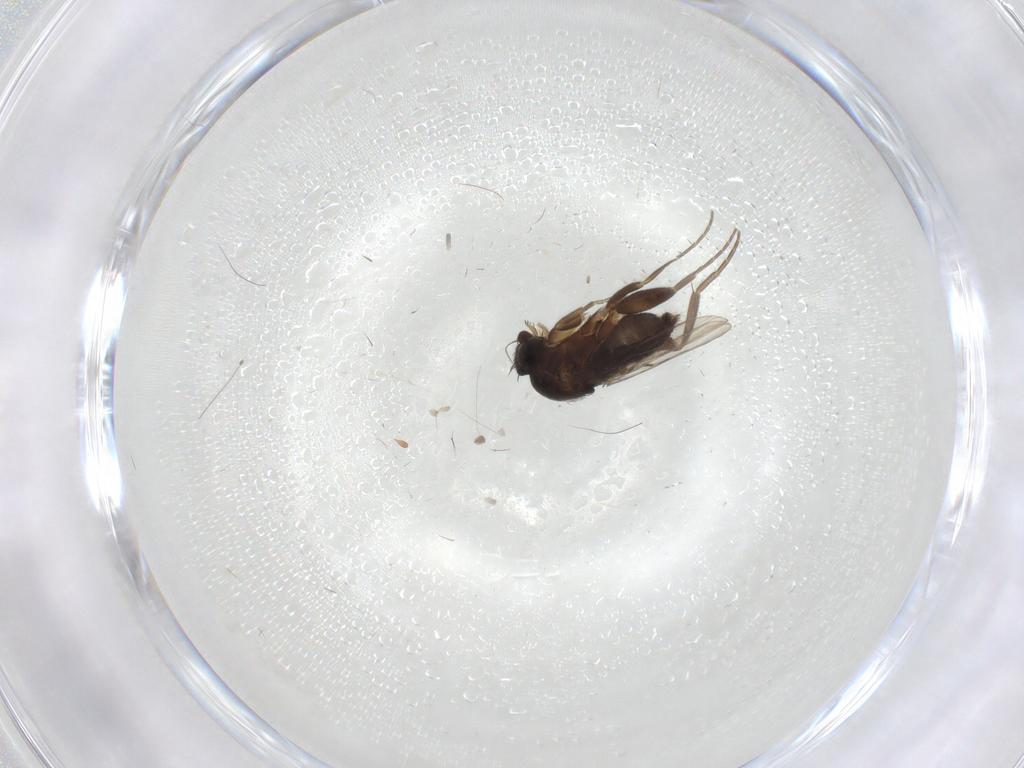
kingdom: Animalia
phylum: Arthropoda
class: Insecta
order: Diptera
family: Phoridae
